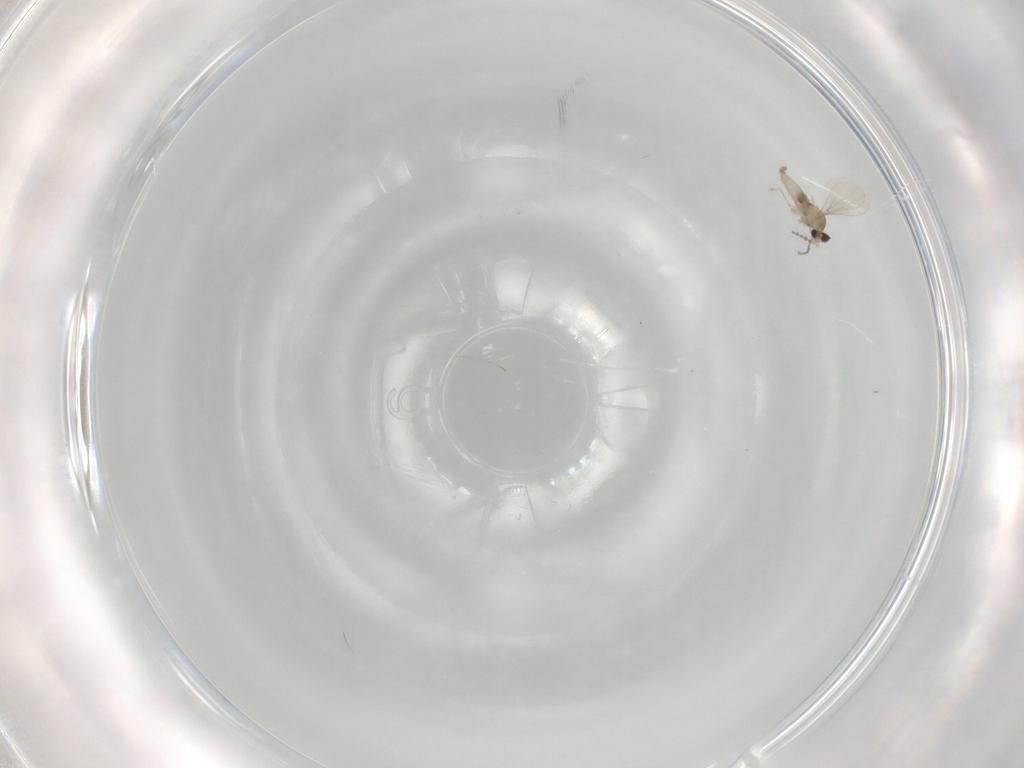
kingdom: Animalia
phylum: Arthropoda
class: Insecta
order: Diptera
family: Cecidomyiidae
